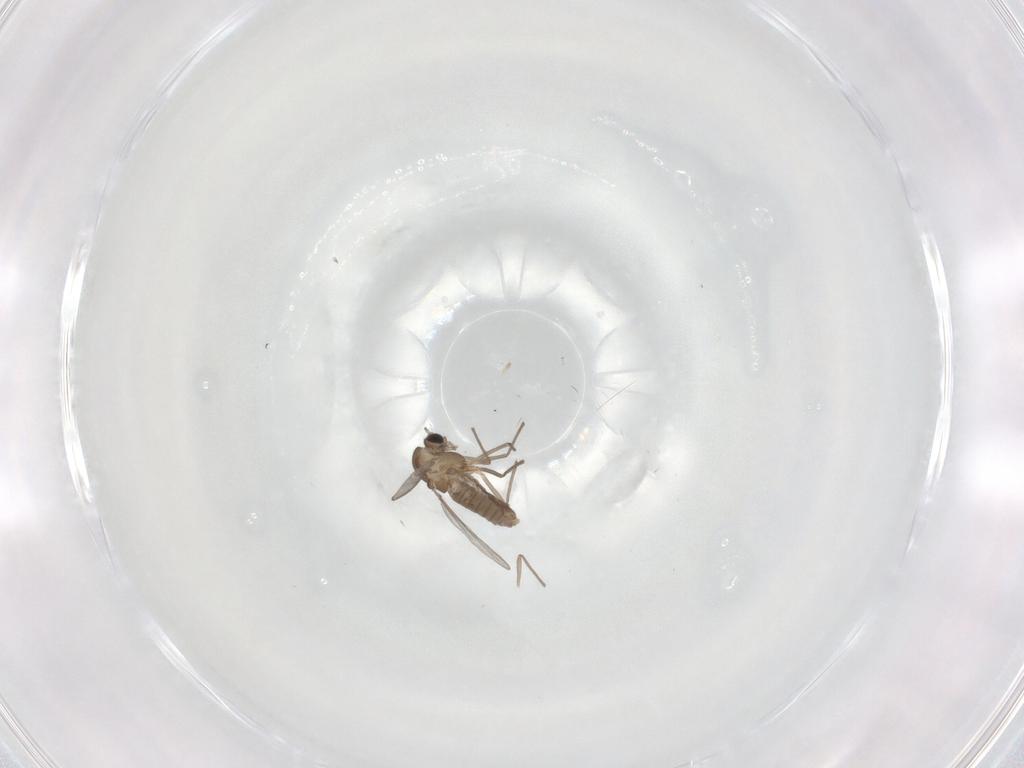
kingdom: Animalia
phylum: Arthropoda
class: Insecta
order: Diptera
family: Chironomidae
